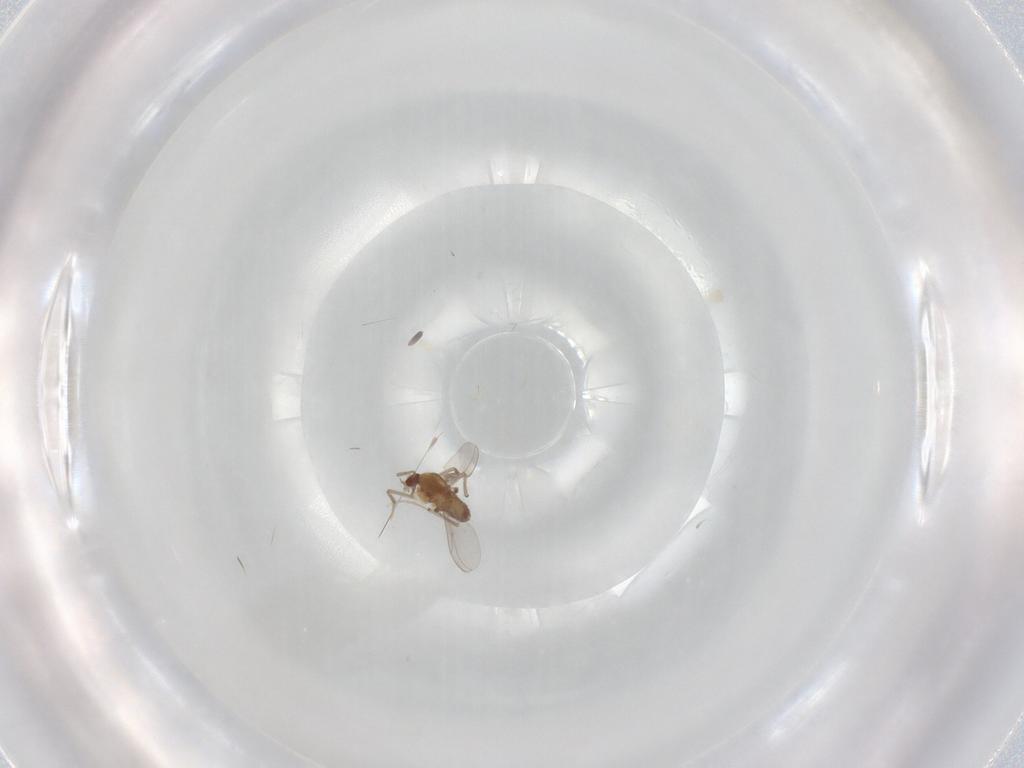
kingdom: Animalia
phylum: Arthropoda
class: Insecta
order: Diptera
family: Chironomidae
